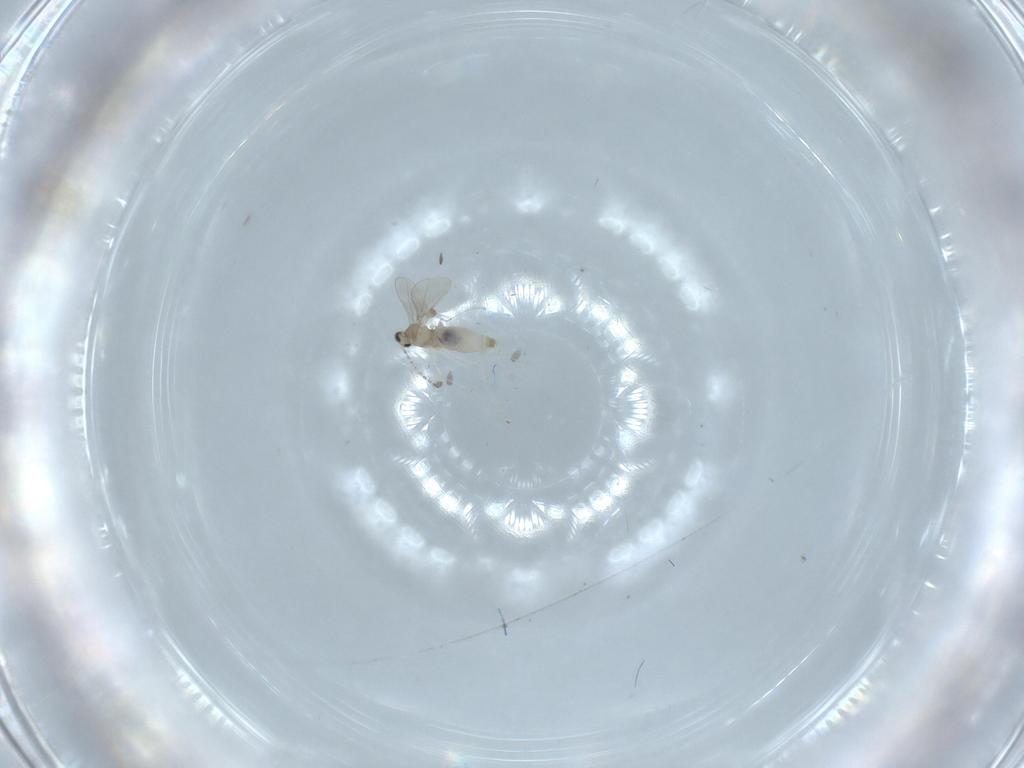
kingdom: Animalia
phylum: Arthropoda
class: Insecta
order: Diptera
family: Cecidomyiidae
